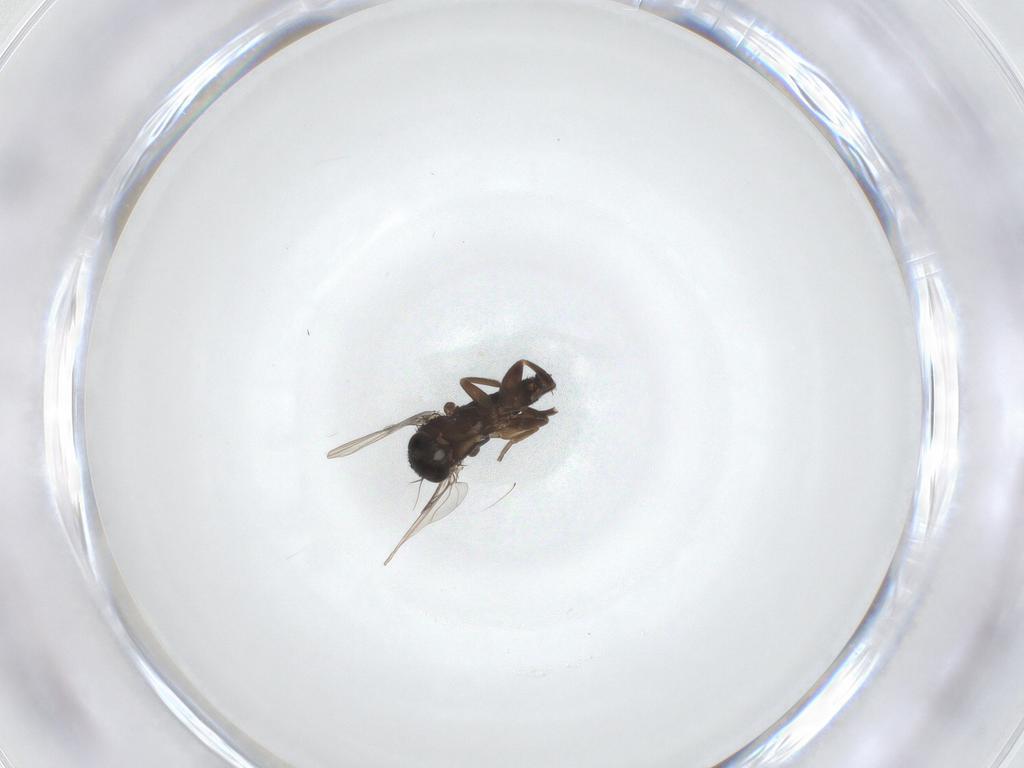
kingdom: Animalia
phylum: Arthropoda
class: Insecta
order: Diptera
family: Phoridae
